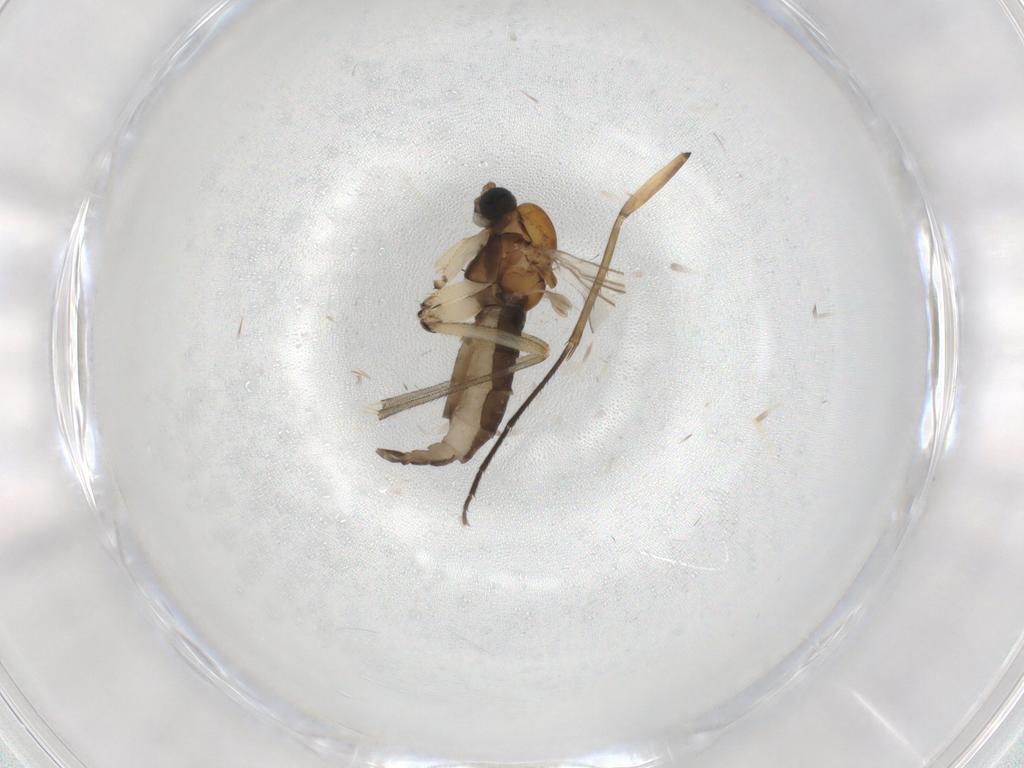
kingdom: Animalia
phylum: Arthropoda
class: Insecta
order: Diptera
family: Sciaridae
